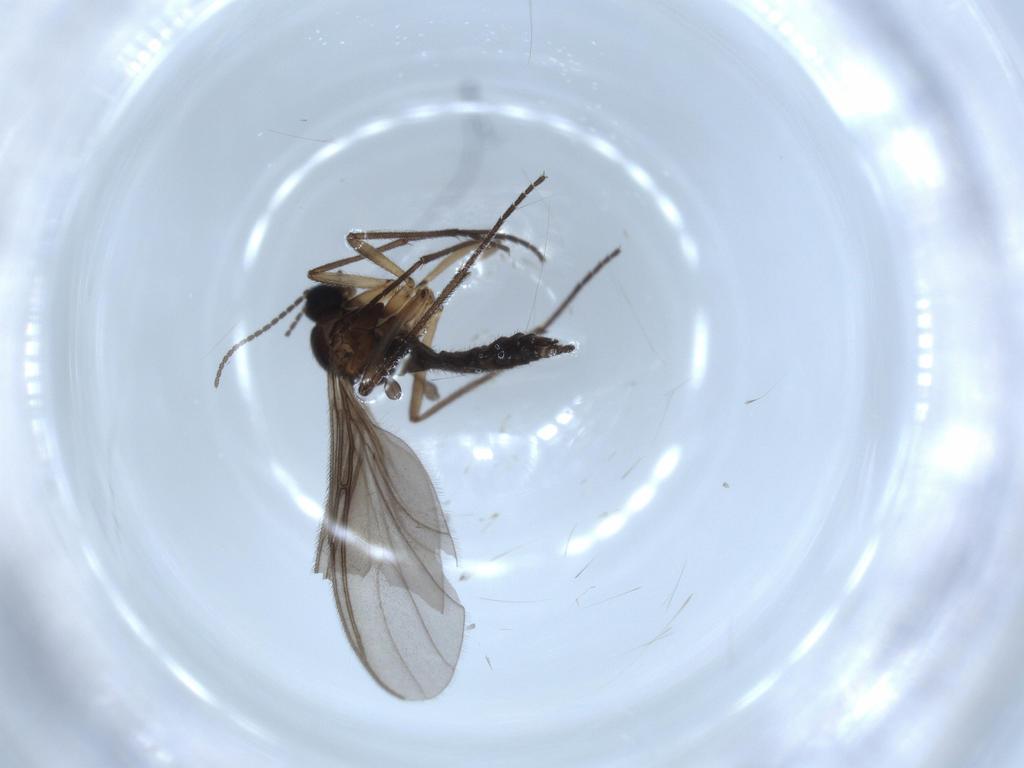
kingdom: Animalia
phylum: Arthropoda
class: Insecta
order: Diptera
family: Sciaridae
